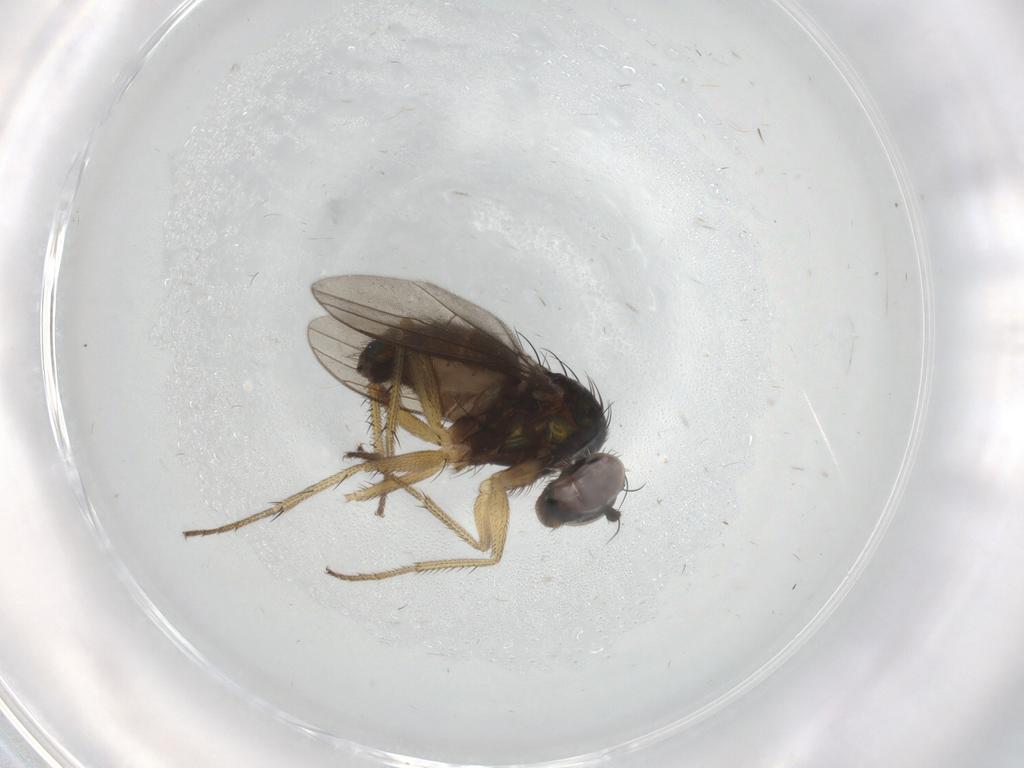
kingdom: Animalia
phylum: Arthropoda
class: Insecta
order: Diptera
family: Dolichopodidae
